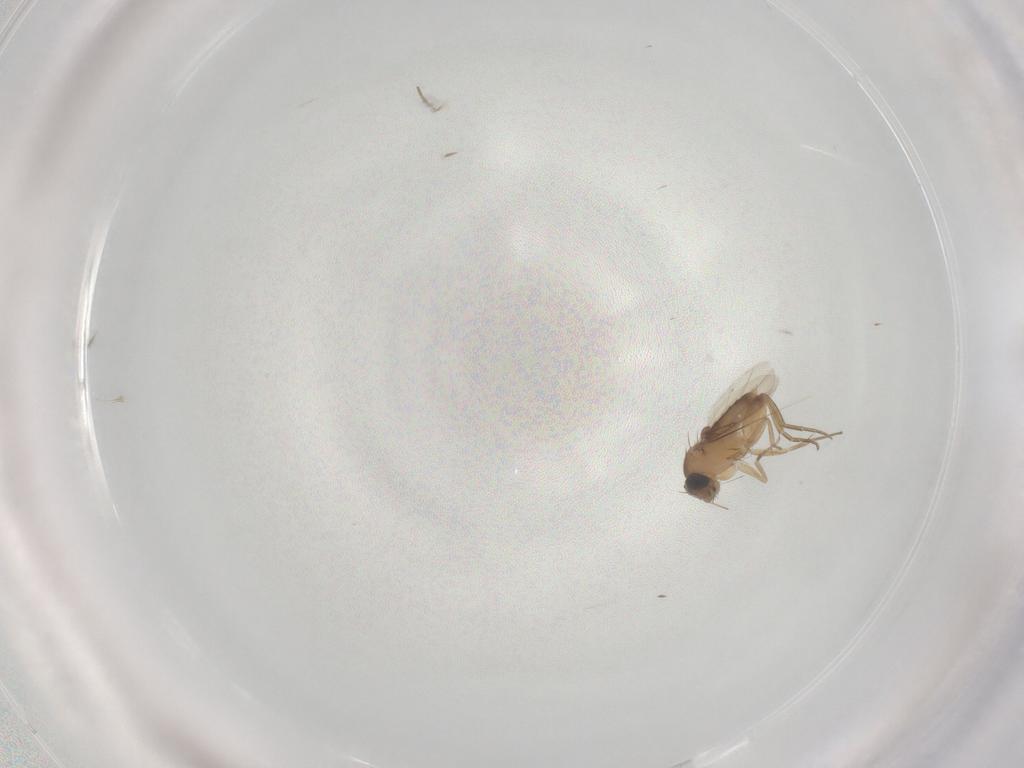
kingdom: Animalia
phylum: Arthropoda
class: Insecta
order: Diptera
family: Phoridae
